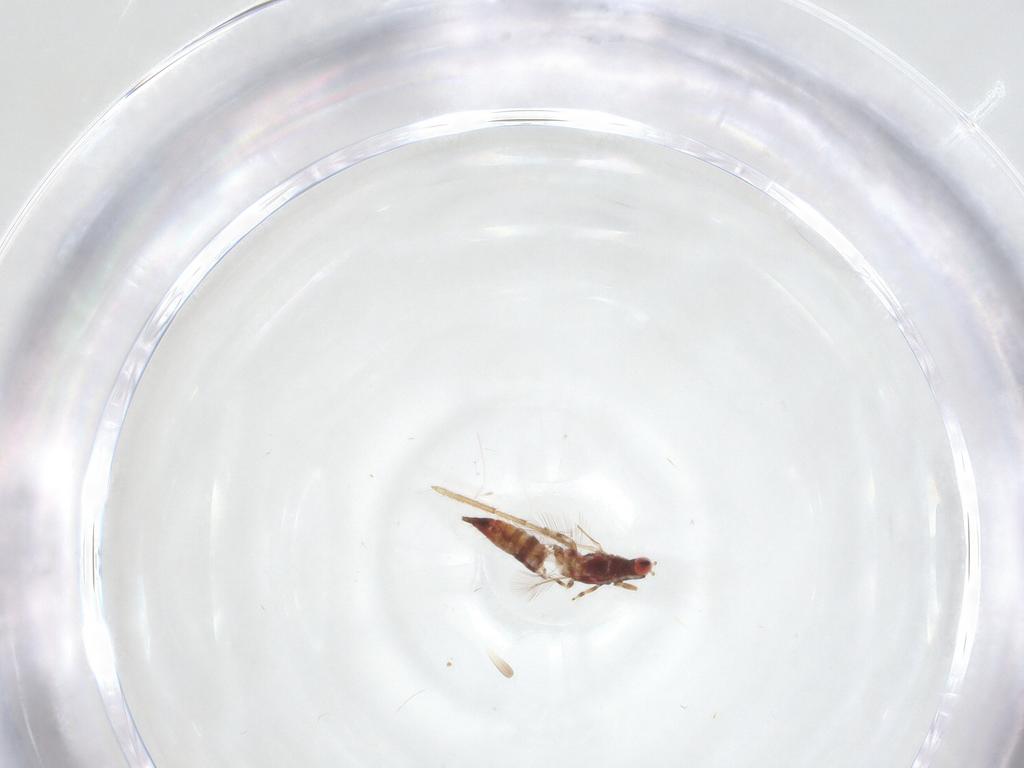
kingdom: Animalia
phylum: Arthropoda
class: Insecta
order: Thysanoptera
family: Phlaeothripidae
